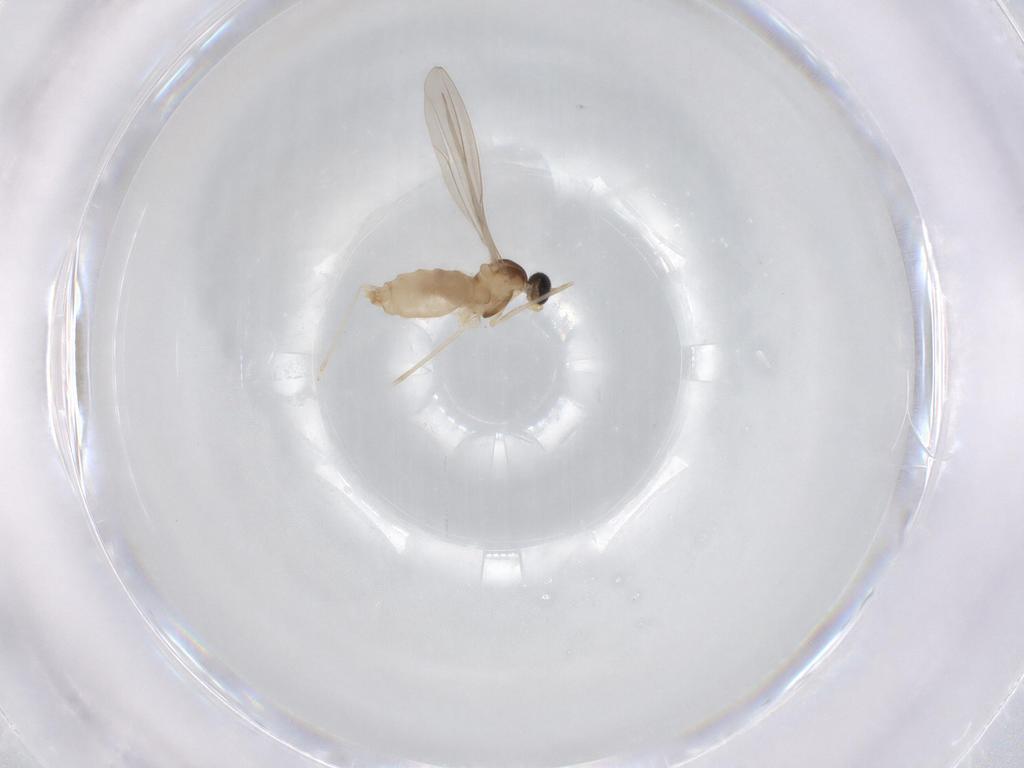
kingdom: Animalia
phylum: Arthropoda
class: Insecta
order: Diptera
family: Cecidomyiidae
